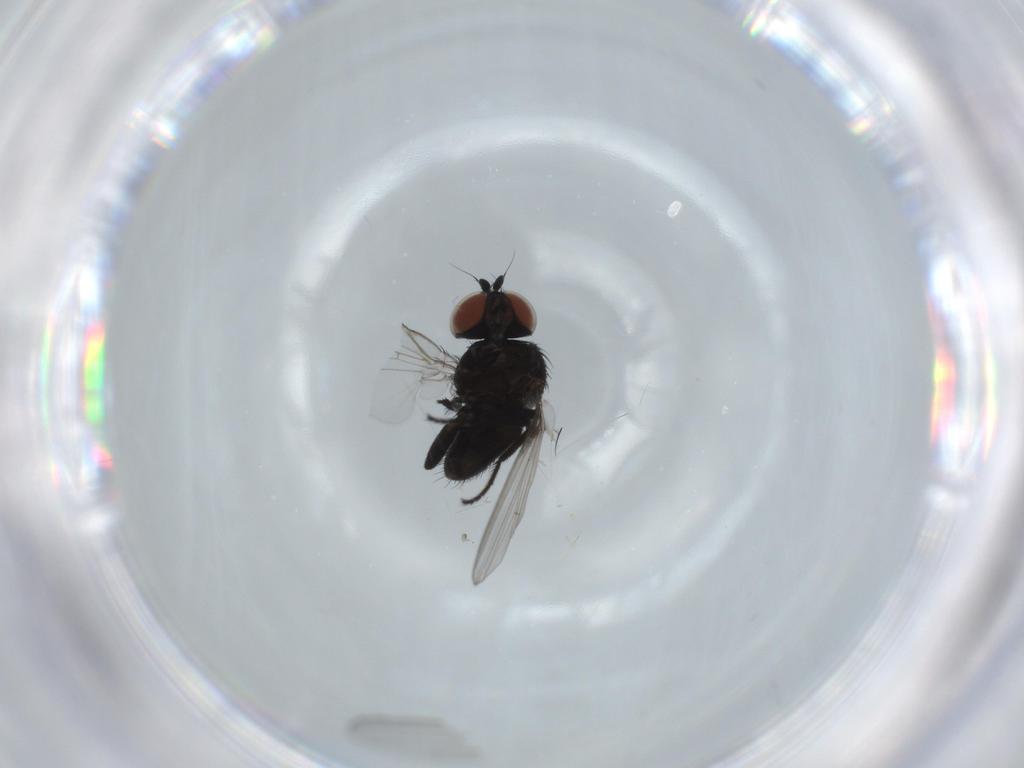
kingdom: Animalia
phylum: Arthropoda
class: Insecta
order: Diptera
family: Milichiidae
